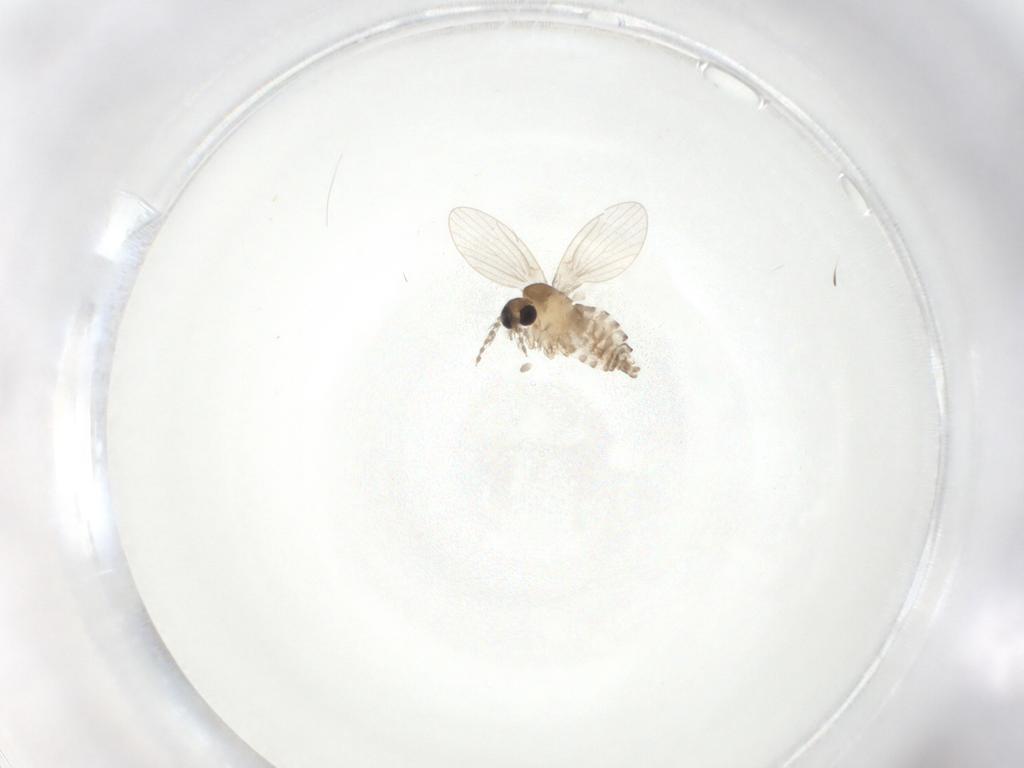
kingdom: Animalia
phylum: Arthropoda
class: Insecta
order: Diptera
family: Psychodidae
